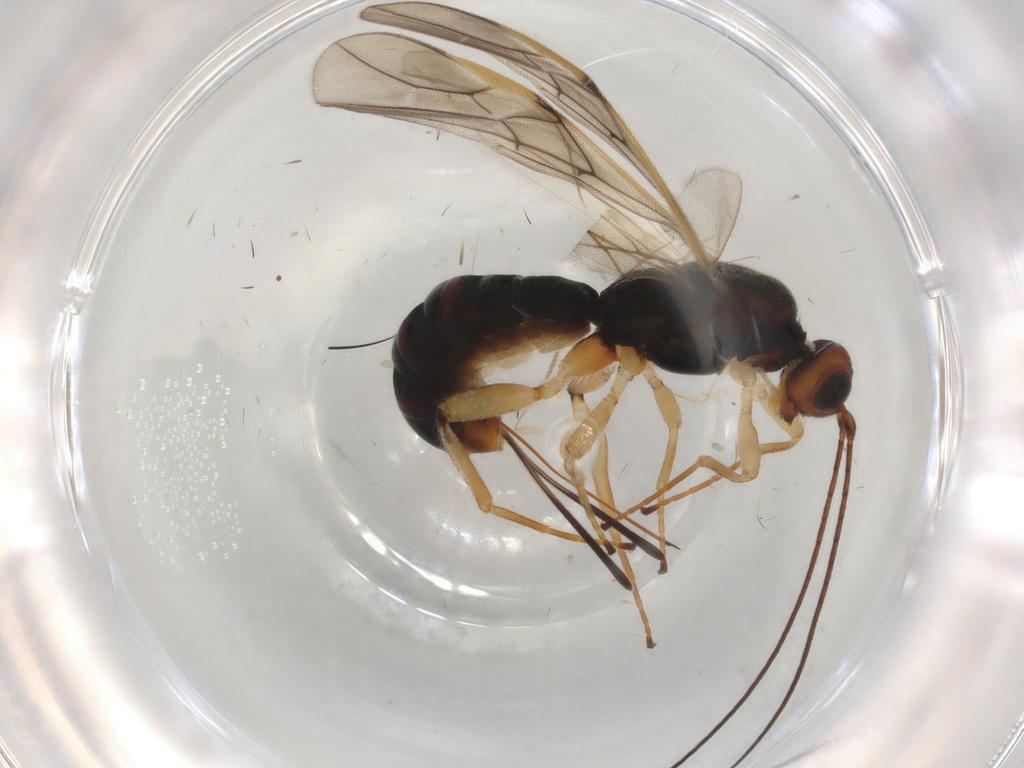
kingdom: Animalia
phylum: Arthropoda
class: Insecta
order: Hymenoptera
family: Braconidae
